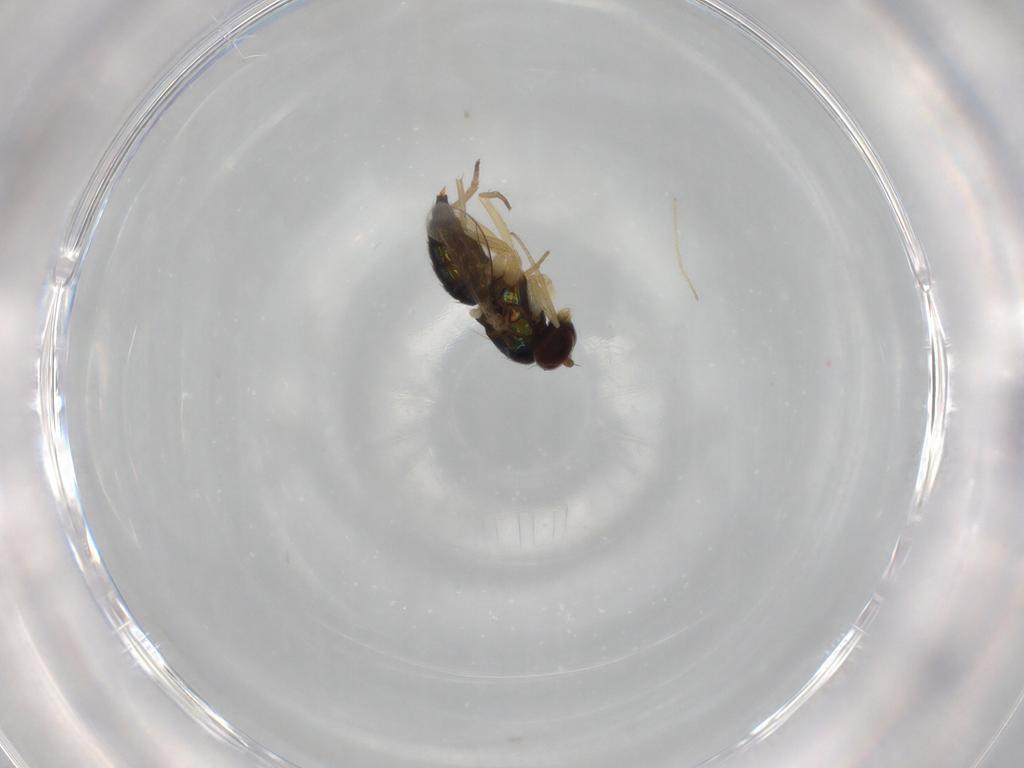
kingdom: Animalia
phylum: Arthropoda
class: Insecta
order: Diptera
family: Dolichopodidae
